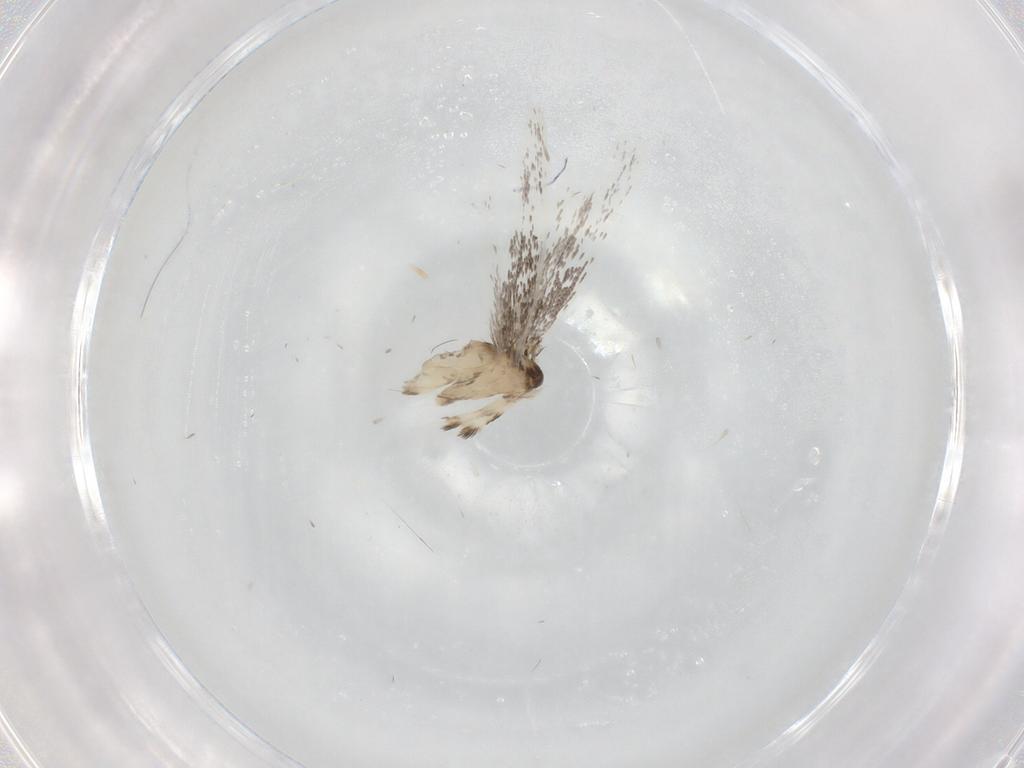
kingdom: Animalia
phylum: Arthropoda
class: Insecta
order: Lepidoptera
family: Gracillariidae
